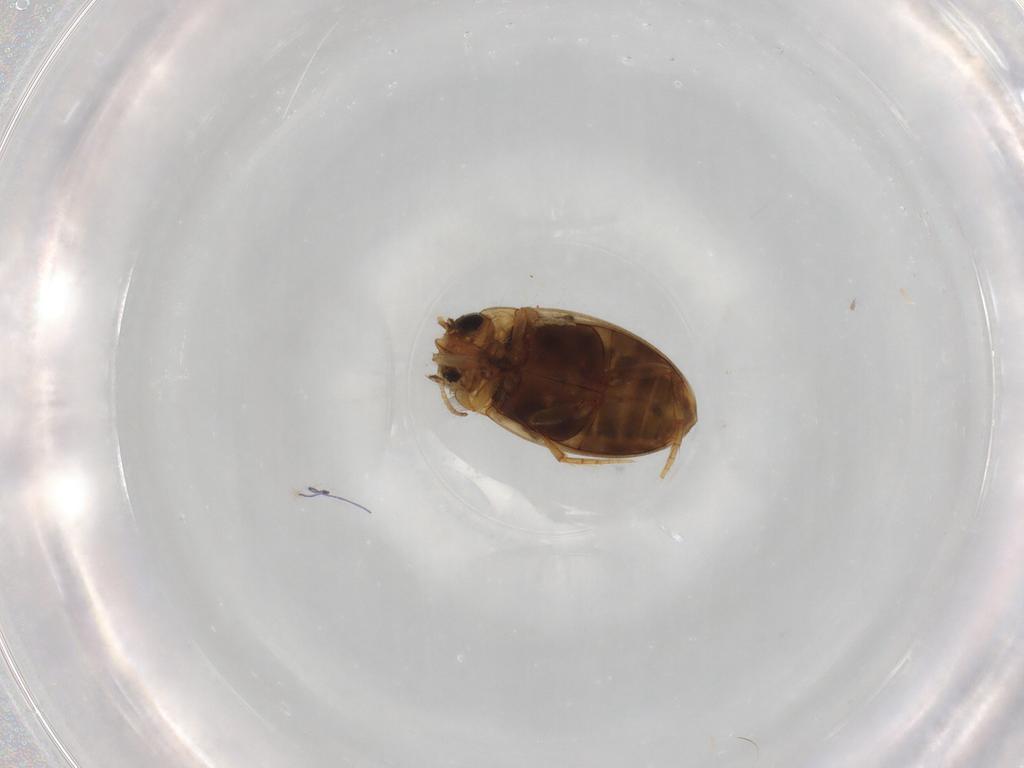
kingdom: Animalia
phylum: Arthropoda
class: Insecta
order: Coleoptera
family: Dytiscidae
